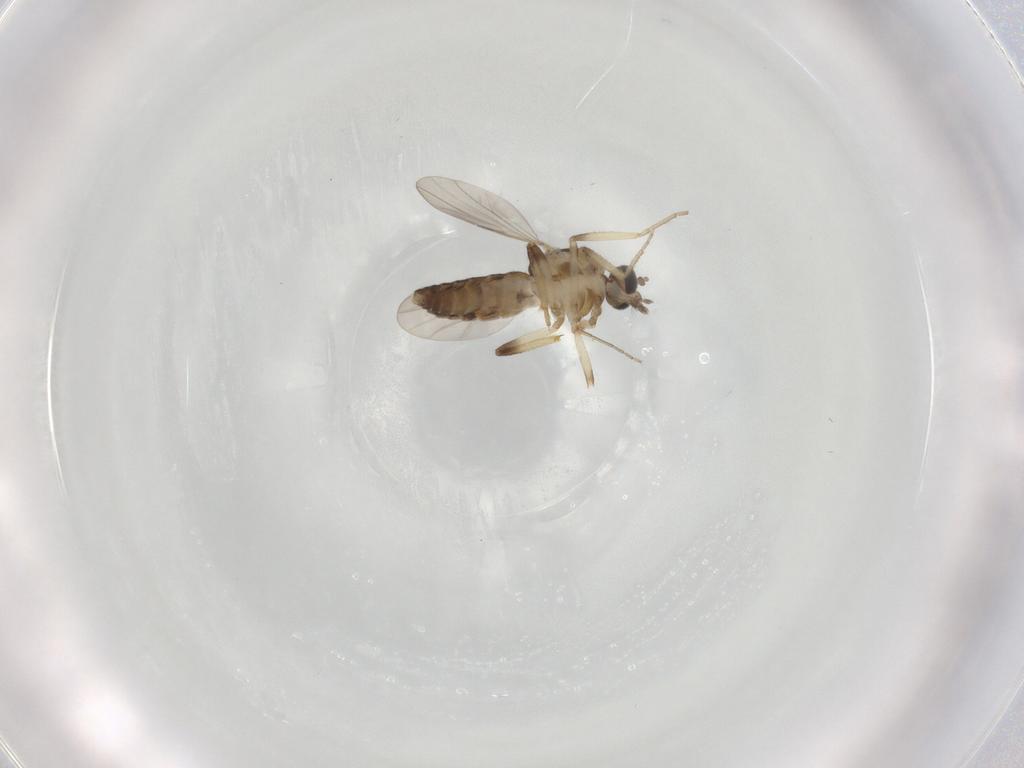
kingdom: Animalia
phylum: Arthropoda
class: Insecta
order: Diptera
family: Ceratopogonidae
